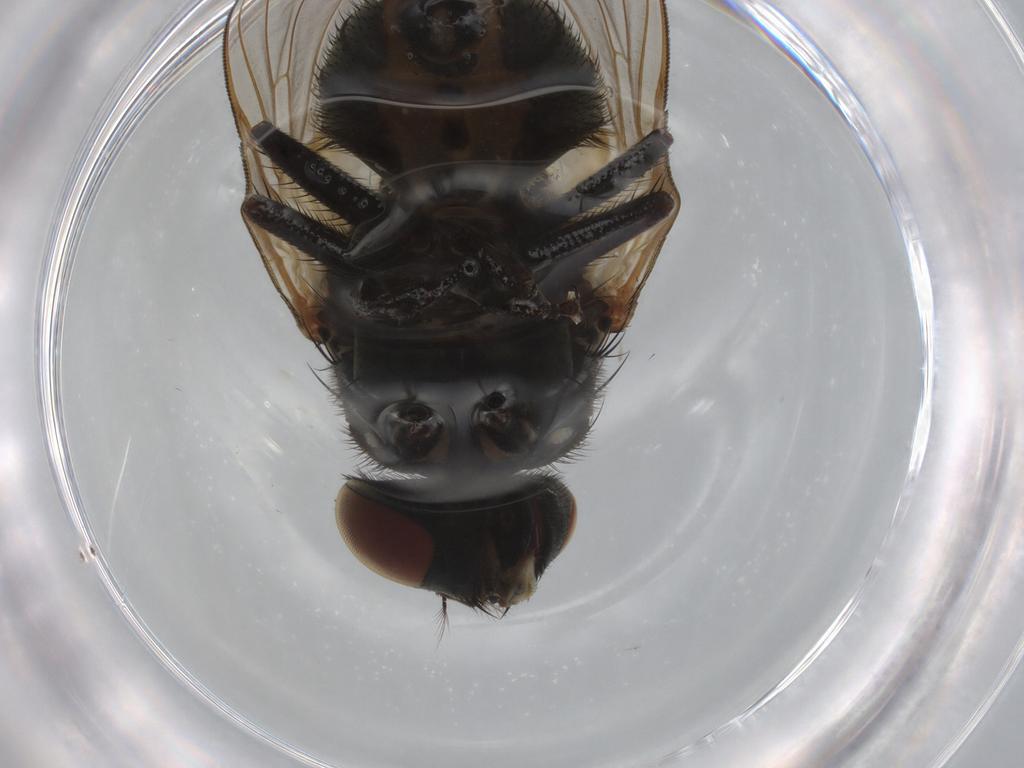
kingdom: Animalia
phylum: Arthropoda
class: Insecta
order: Diptera
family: Muscidae
